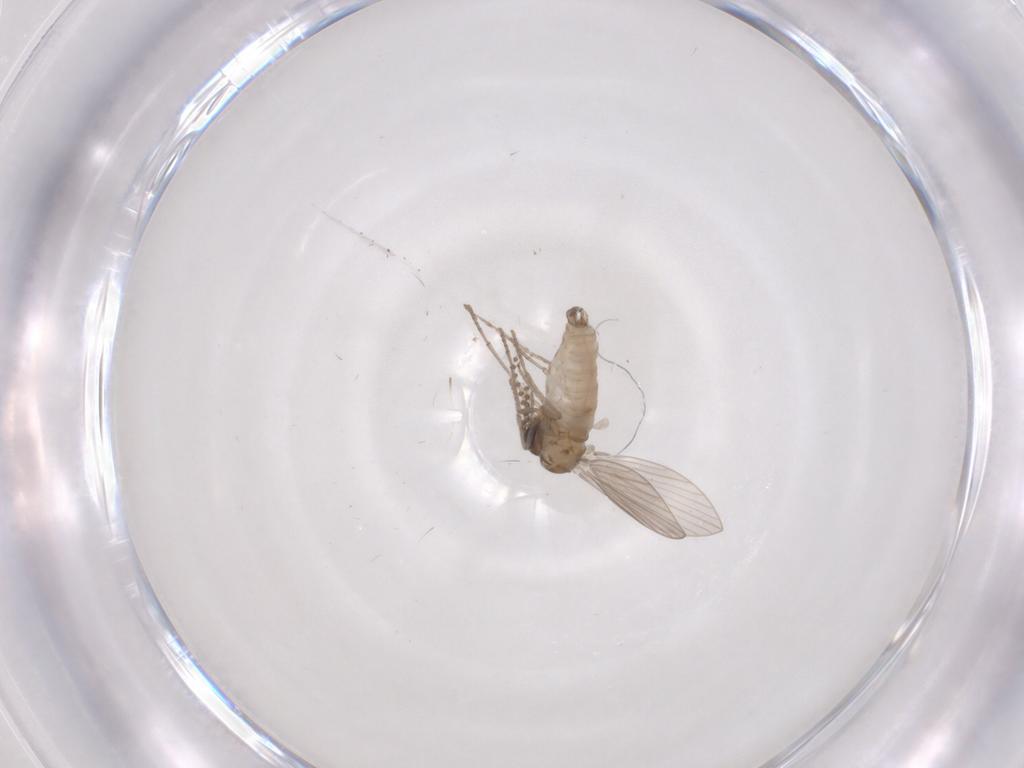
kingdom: Animalia
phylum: Arthropoda
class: Insecta
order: Diptera
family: Psychodidae
